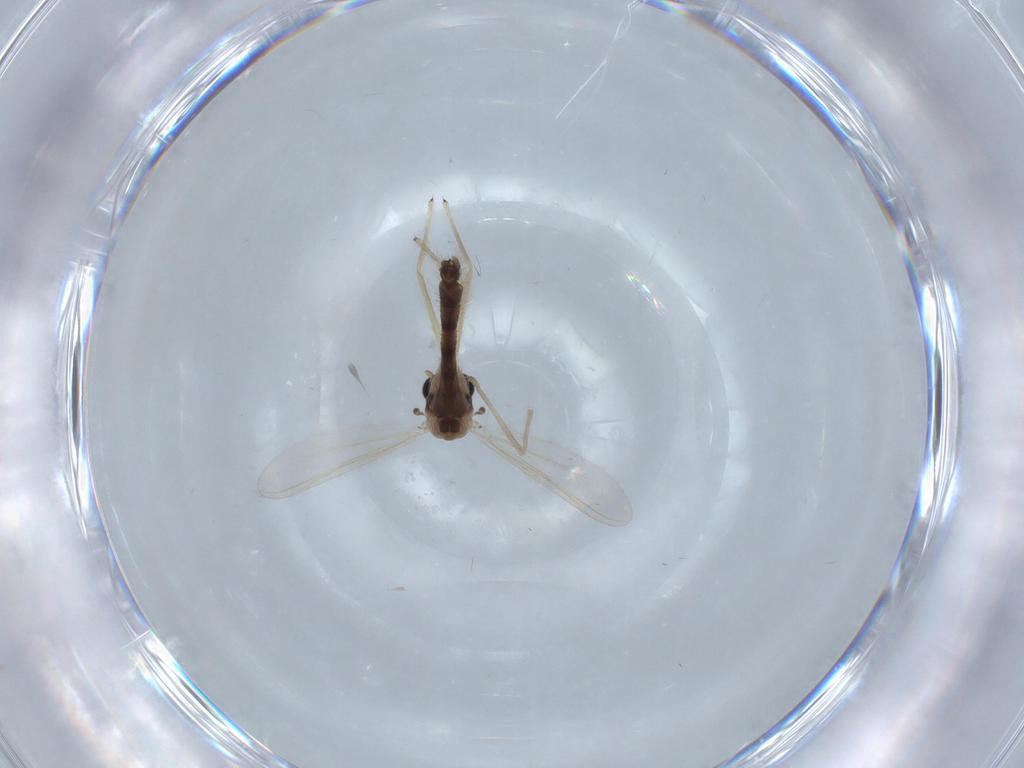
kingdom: Animalia
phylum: Arthropoda
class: Insecta
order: Diptera
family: Chironomidae
